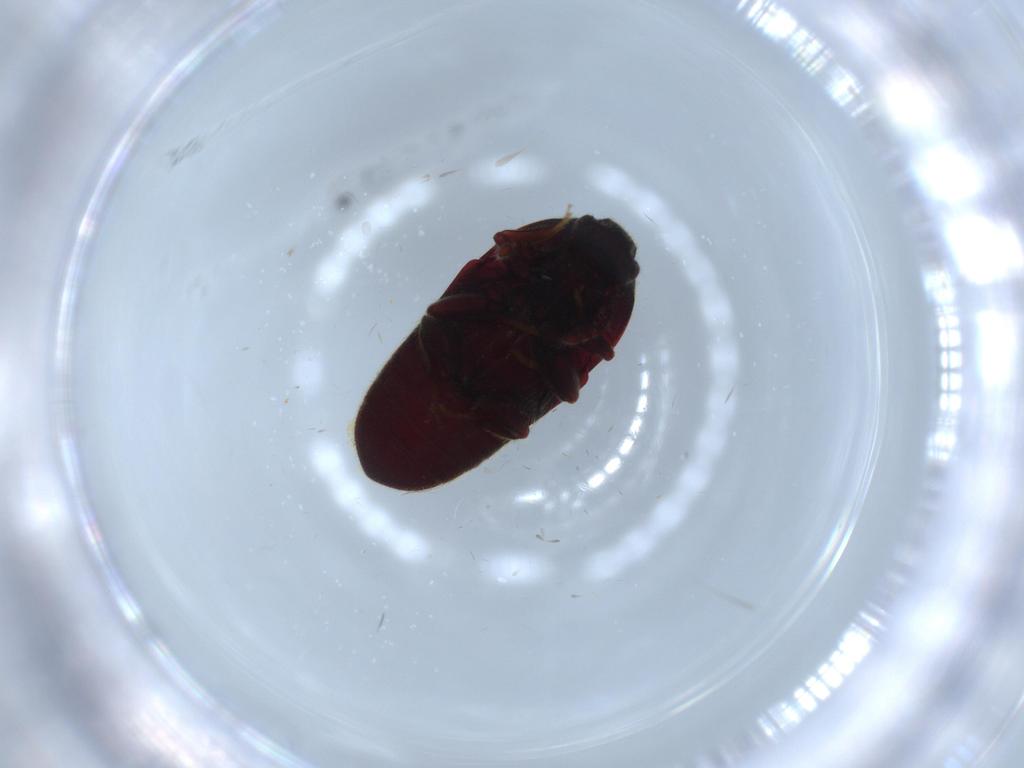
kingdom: Animalia
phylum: Arthropoda
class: Insecta
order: Coleoptera
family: Throscidae
